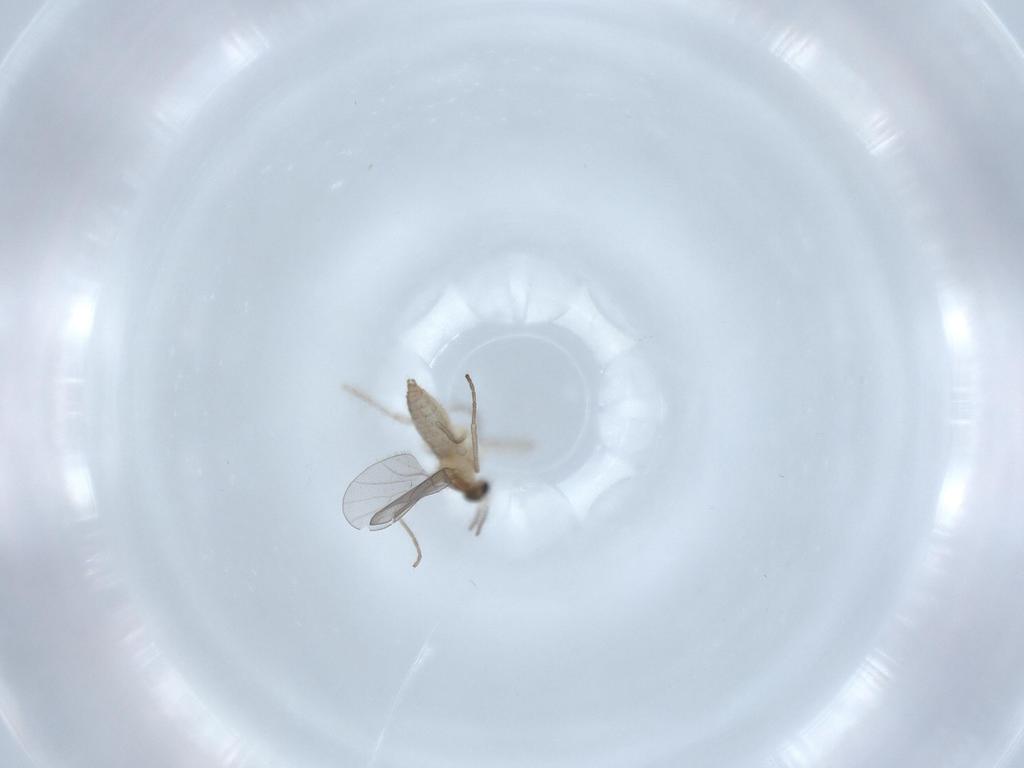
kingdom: Animalia
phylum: Arthropoda
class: Insecta
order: Diptera
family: Cecidomyiidae
